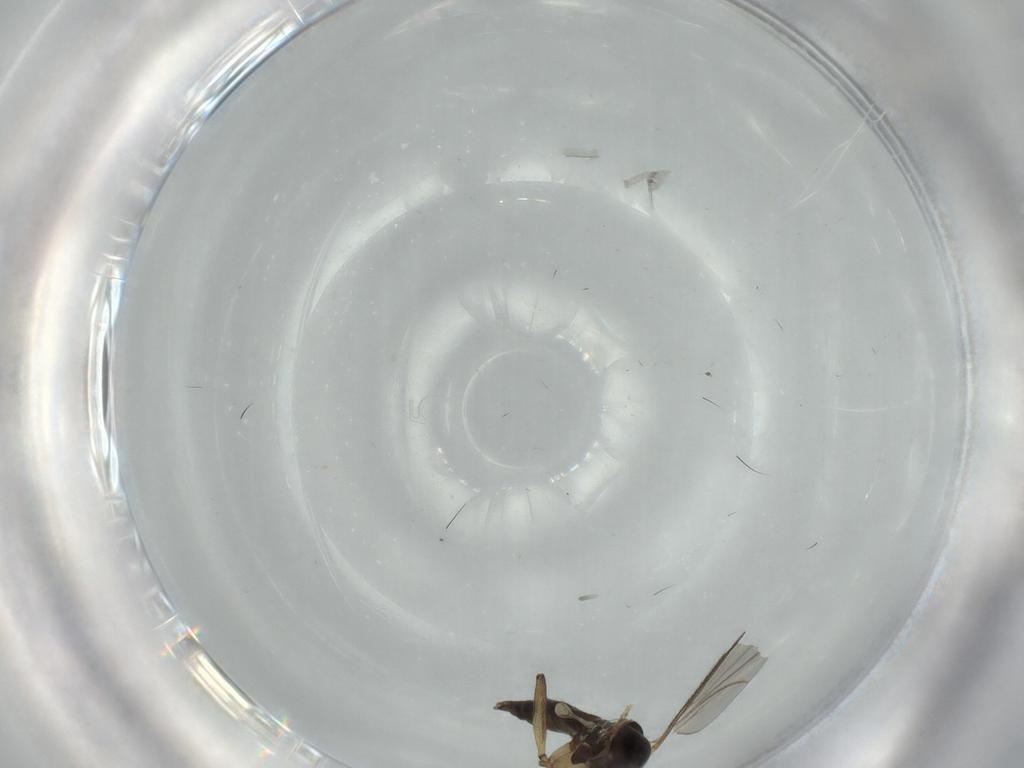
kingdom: Animalia
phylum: Arthropoda
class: Insecta
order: Diptera
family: Sciaridae
